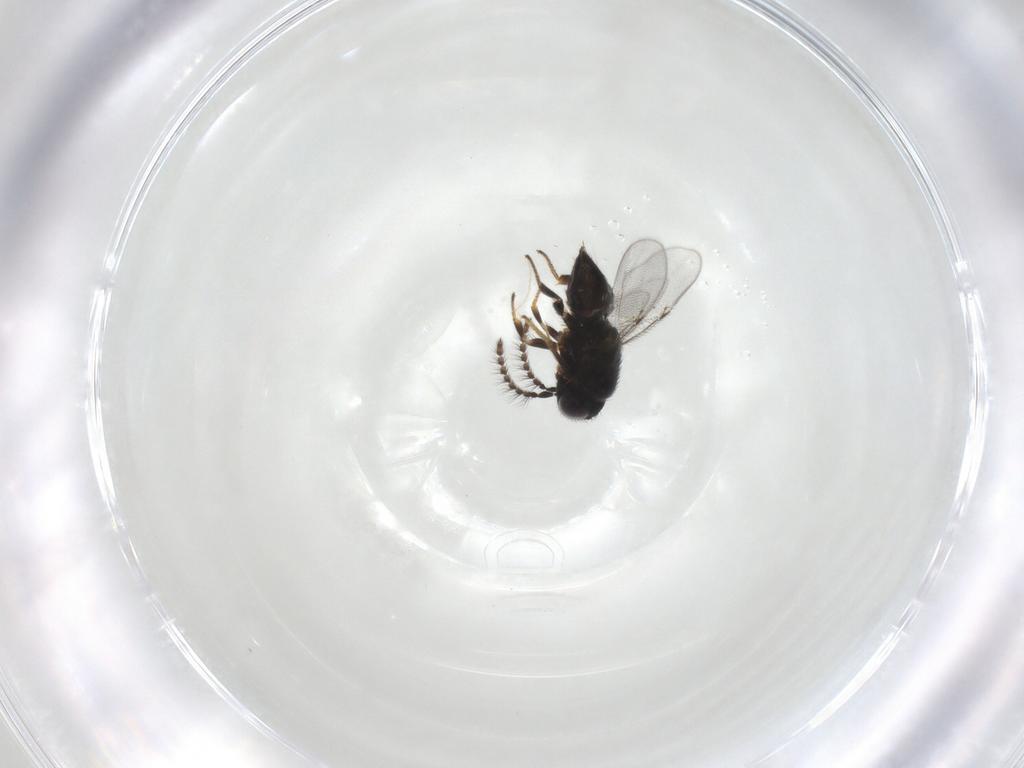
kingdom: Animalia
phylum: Arthropoda
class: Insecta
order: Hymenoptera
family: Encyrtidae
